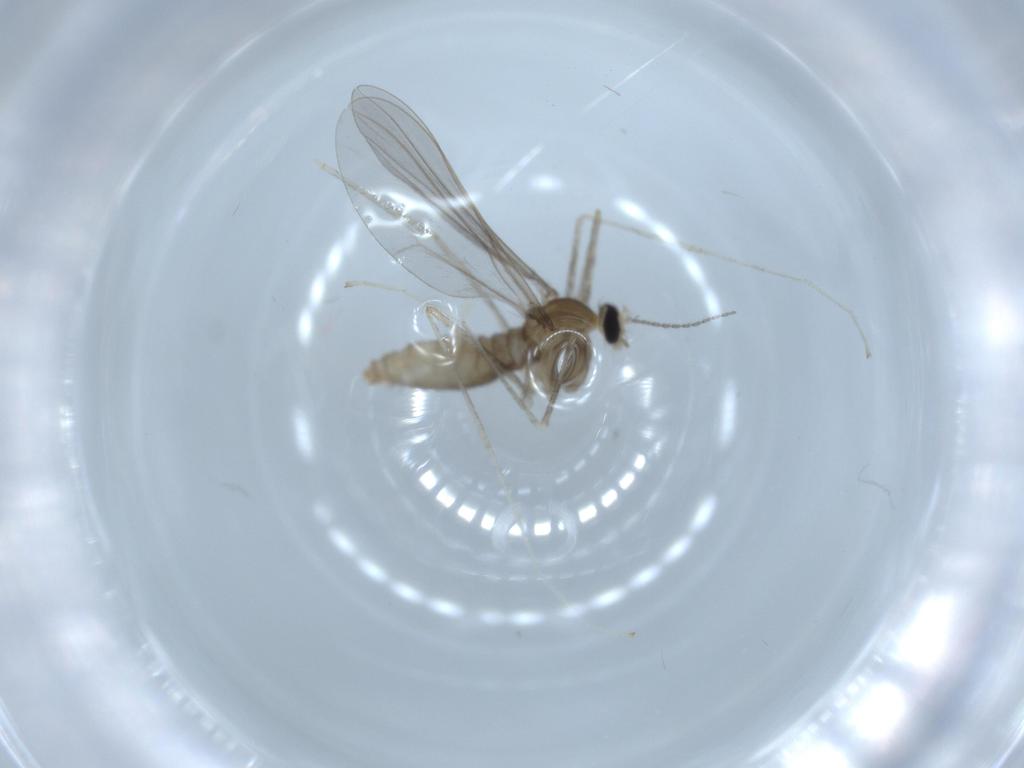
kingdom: Animalia
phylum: Arthropoda
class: Insecta
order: Diptera
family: Cecidomyiidae
